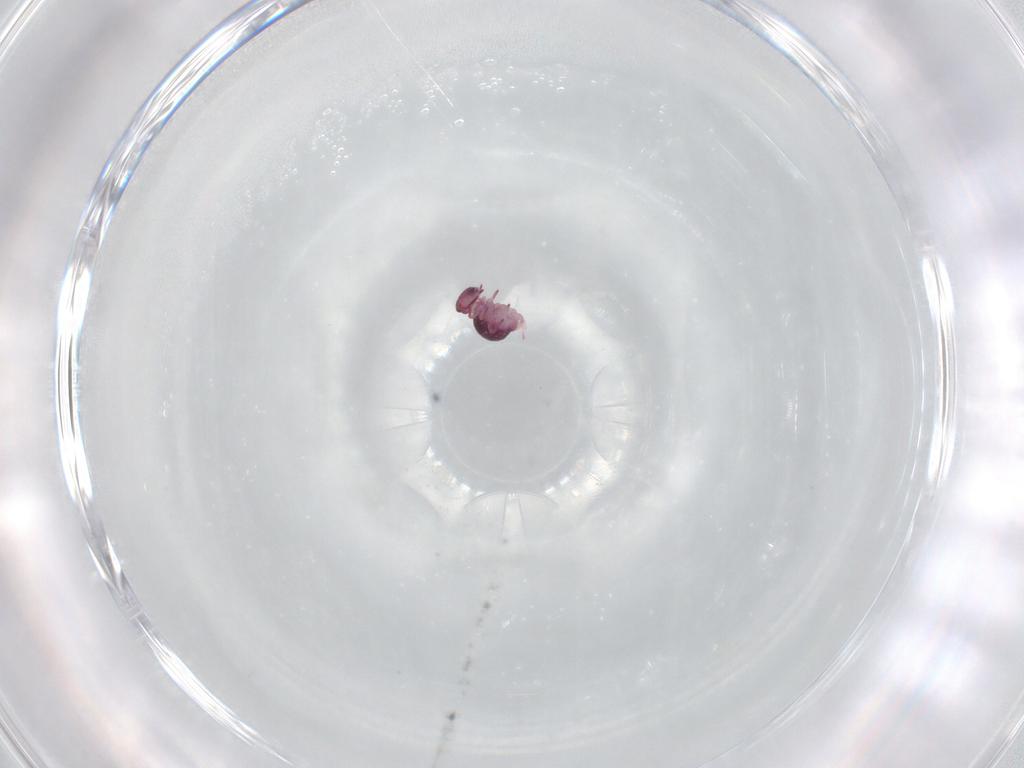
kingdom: Animalia
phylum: Arthropoda
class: Collembola
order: Symphypleona
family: Sminthurididae
